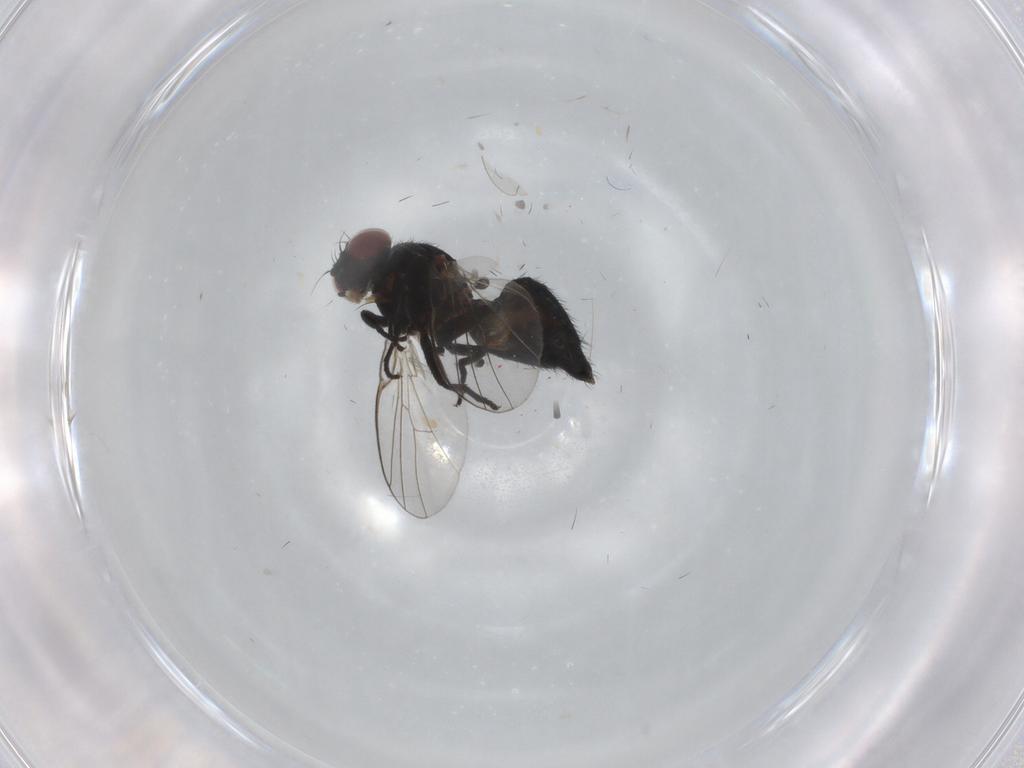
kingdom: Animalia
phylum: Arthropoda
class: Insecta
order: Diptera
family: Agromyzidae
